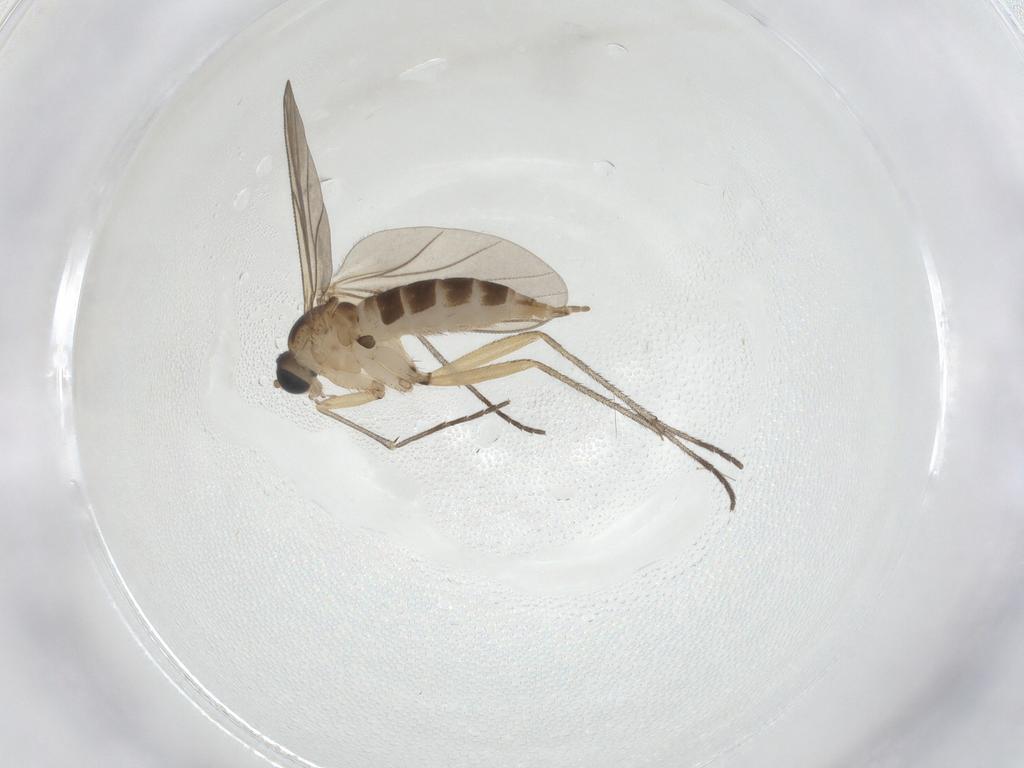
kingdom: Animalia
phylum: Arthropoda
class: Insecta
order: Diptera
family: Sciaridae
